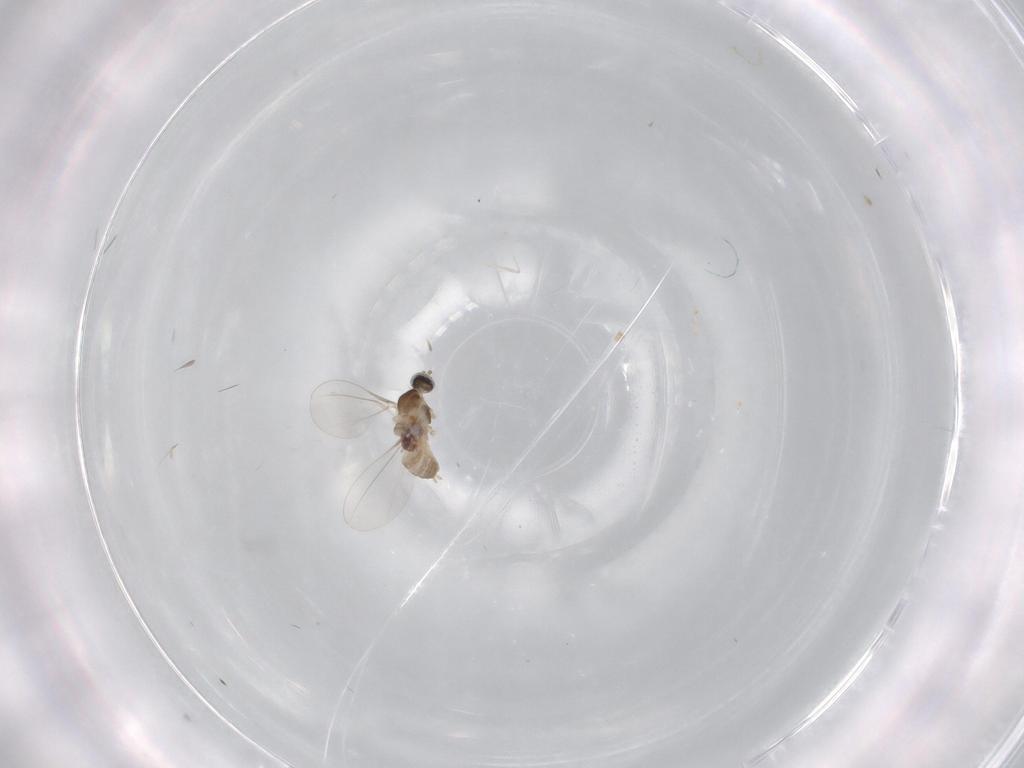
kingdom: Animalia
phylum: Arthropoda
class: Insecta
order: Diptera
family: Cecidomyiidae
